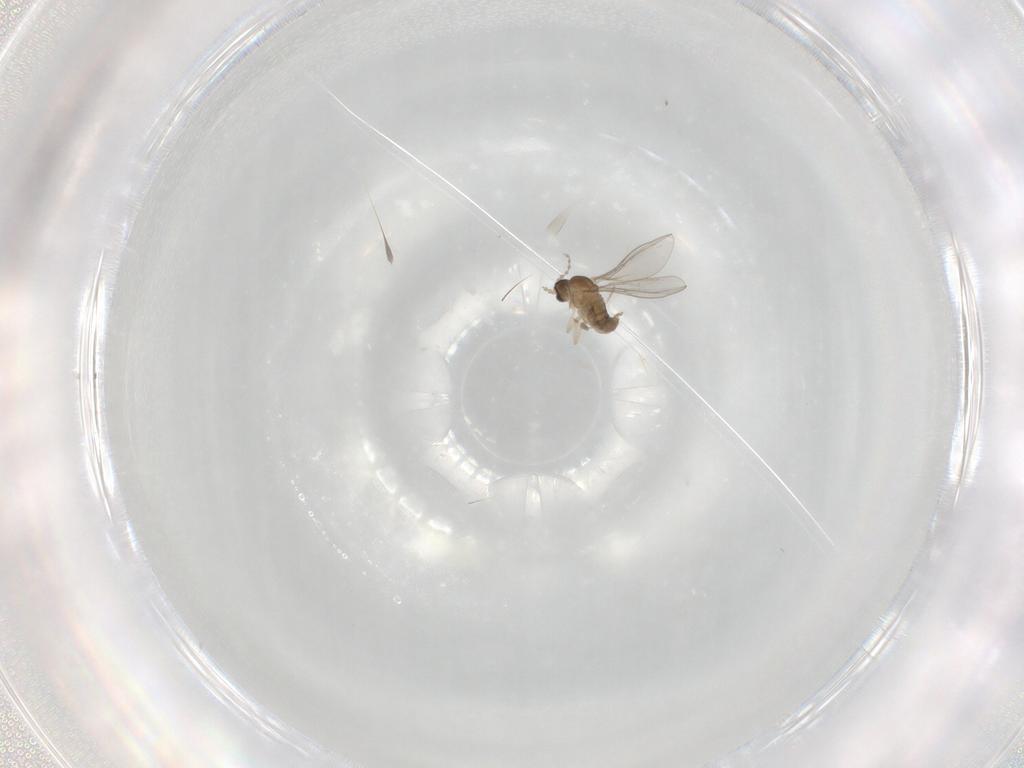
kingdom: Animalia
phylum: Arthropoda
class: Insecta
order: Diptera
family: Cecidomyiidae
